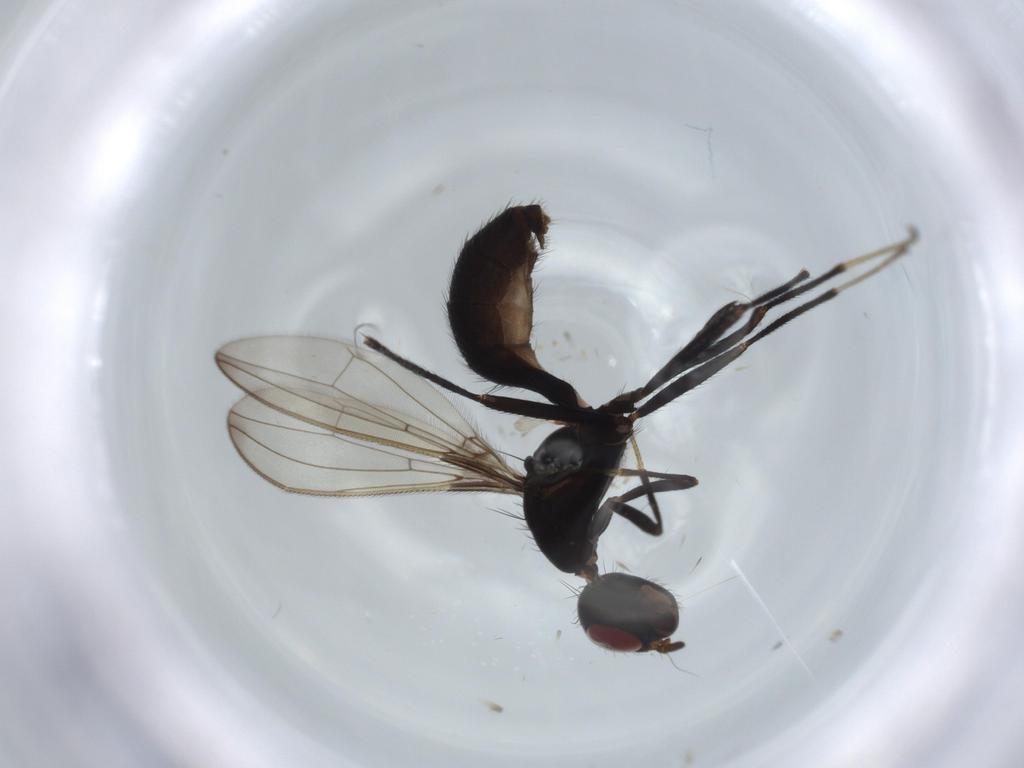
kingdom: Animalia
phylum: Arthropoda
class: Insecta
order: Diptera
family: Richardiidae
